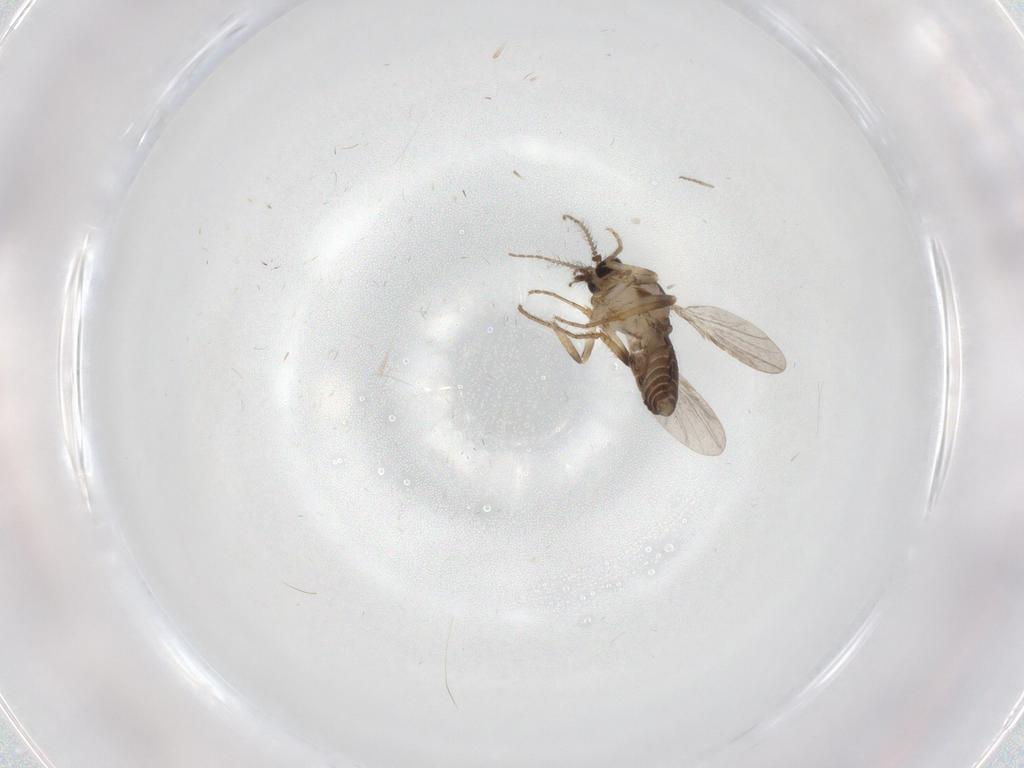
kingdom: Animalia
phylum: Arthropoda
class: Insecta
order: Diptera
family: Ceratopogonidae
